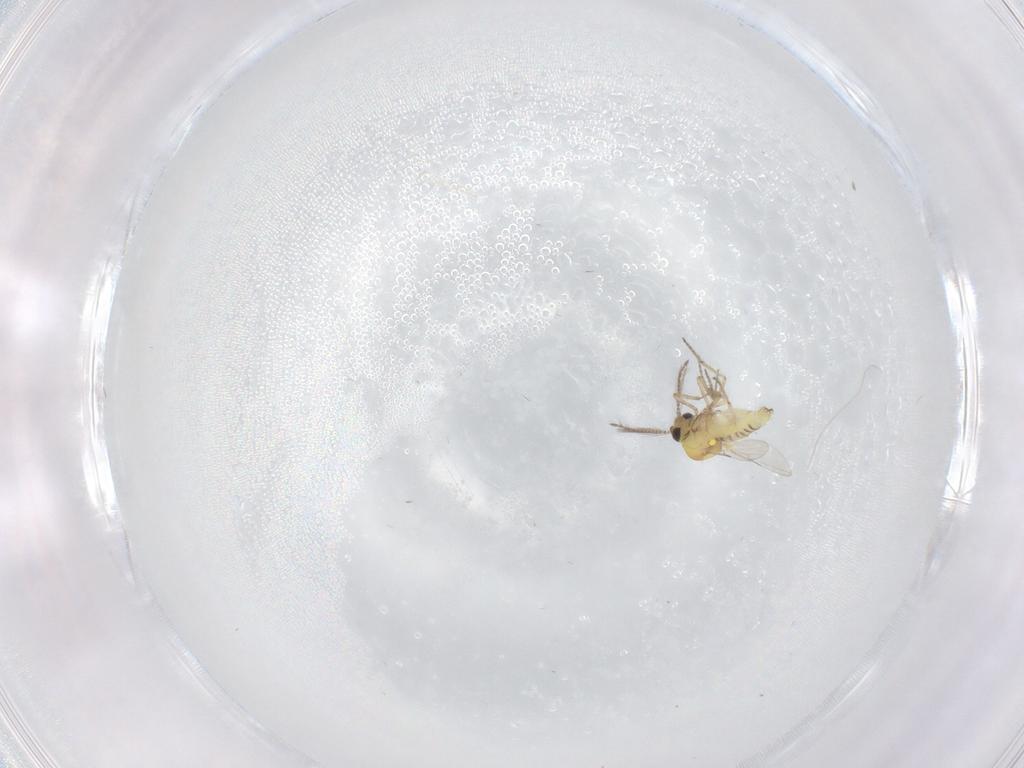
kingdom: Animalia
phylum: Arthropoda
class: Insecta
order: Diptera
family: Ceratopogonidae
